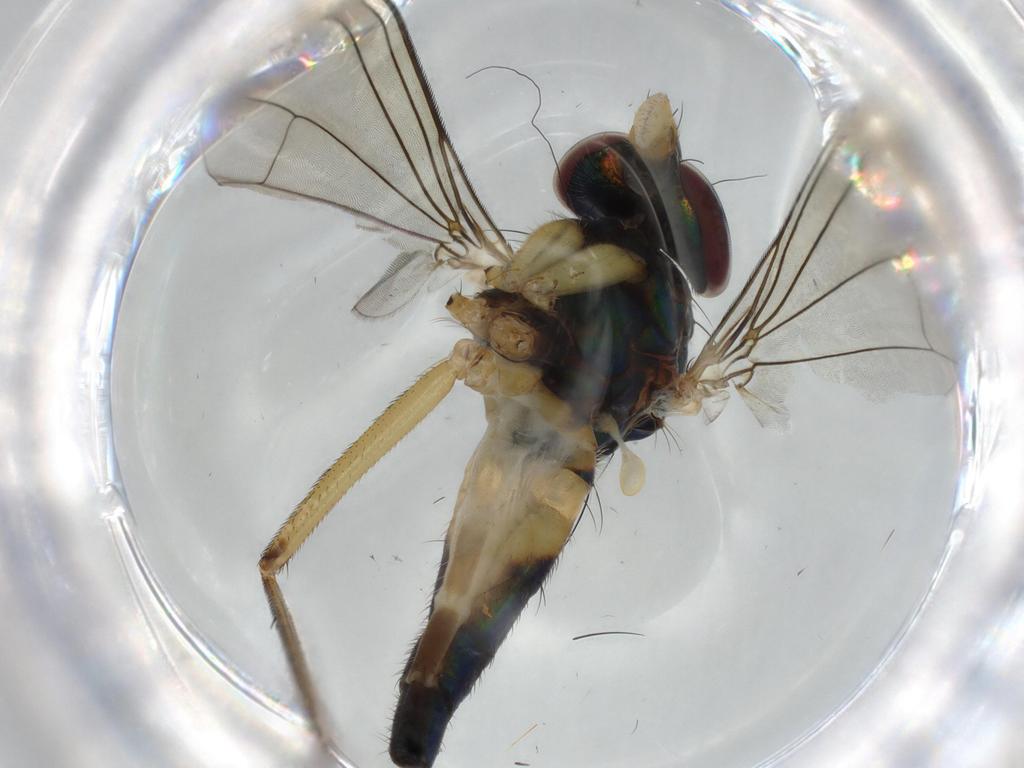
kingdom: Animalia
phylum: Arthropoda
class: Insecta
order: Diptera
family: Dolichopodidae
